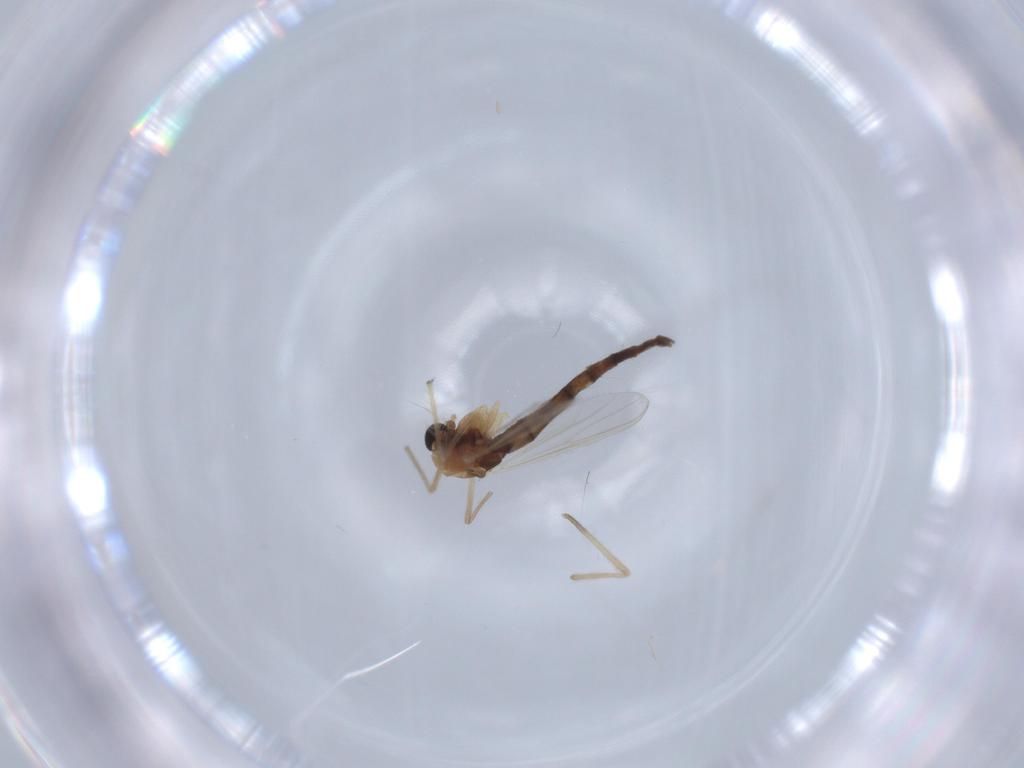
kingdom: Animalia
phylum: Arthropoda
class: Insecta
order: Diptera
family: Chironomidae
